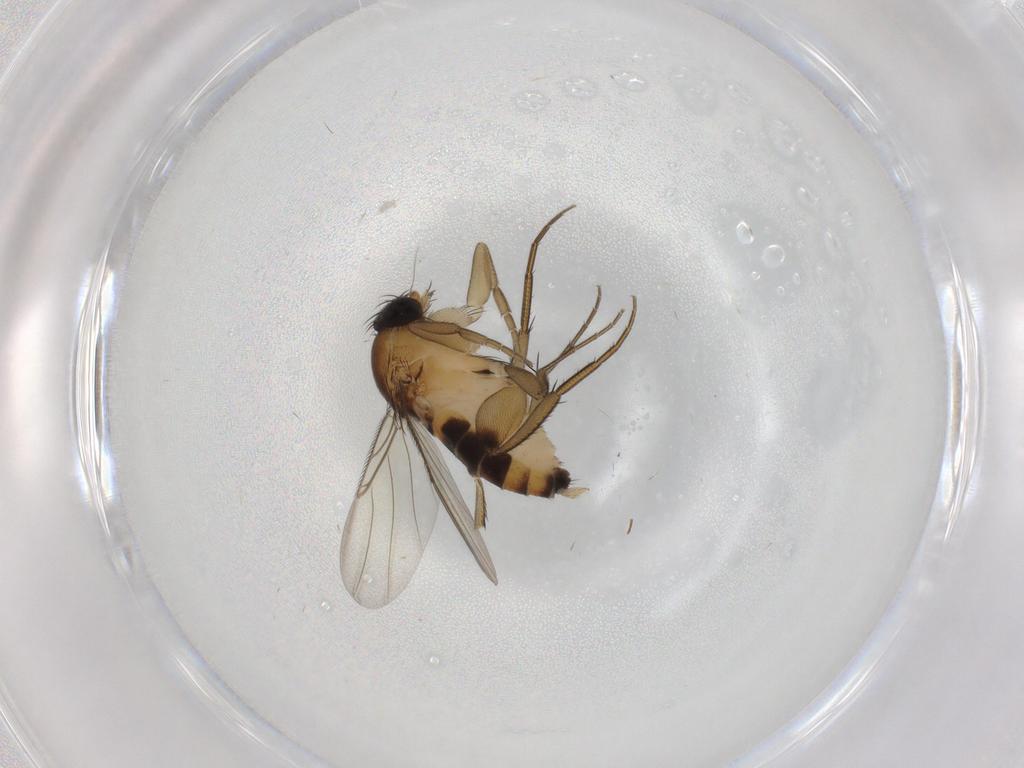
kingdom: Animalia
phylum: Arthropoda
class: Insecta
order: Diptera
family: Phoridae
